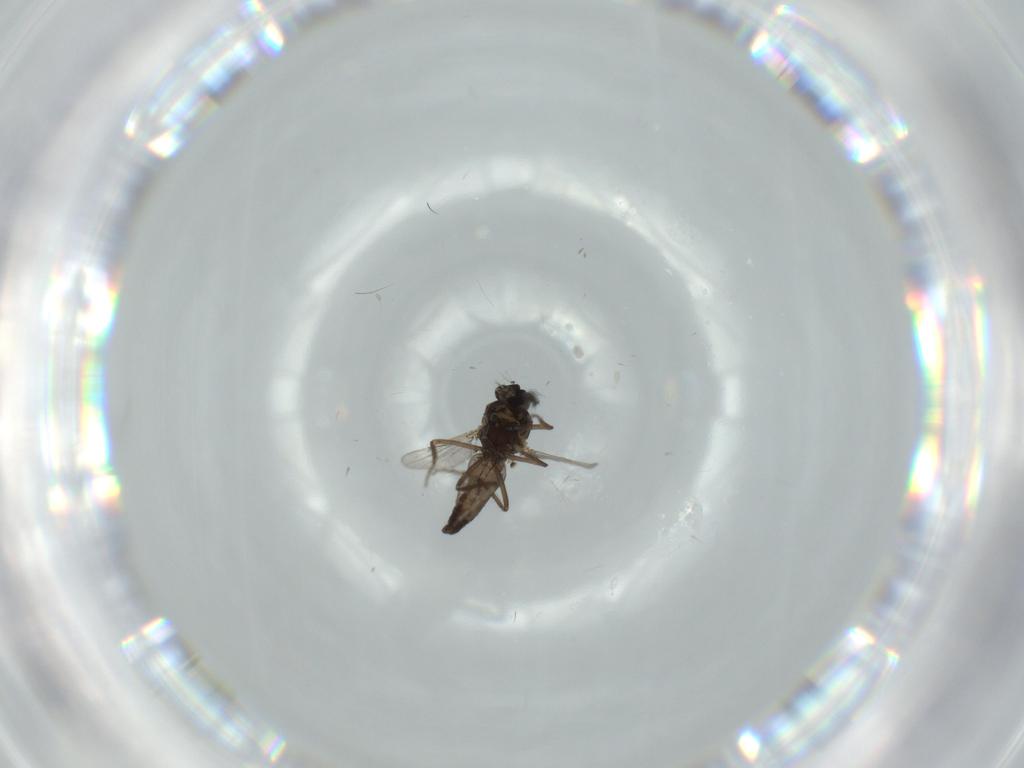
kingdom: Animalia
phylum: Arthropoda
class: Insecta
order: Diptera
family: Ceratopogonidae
